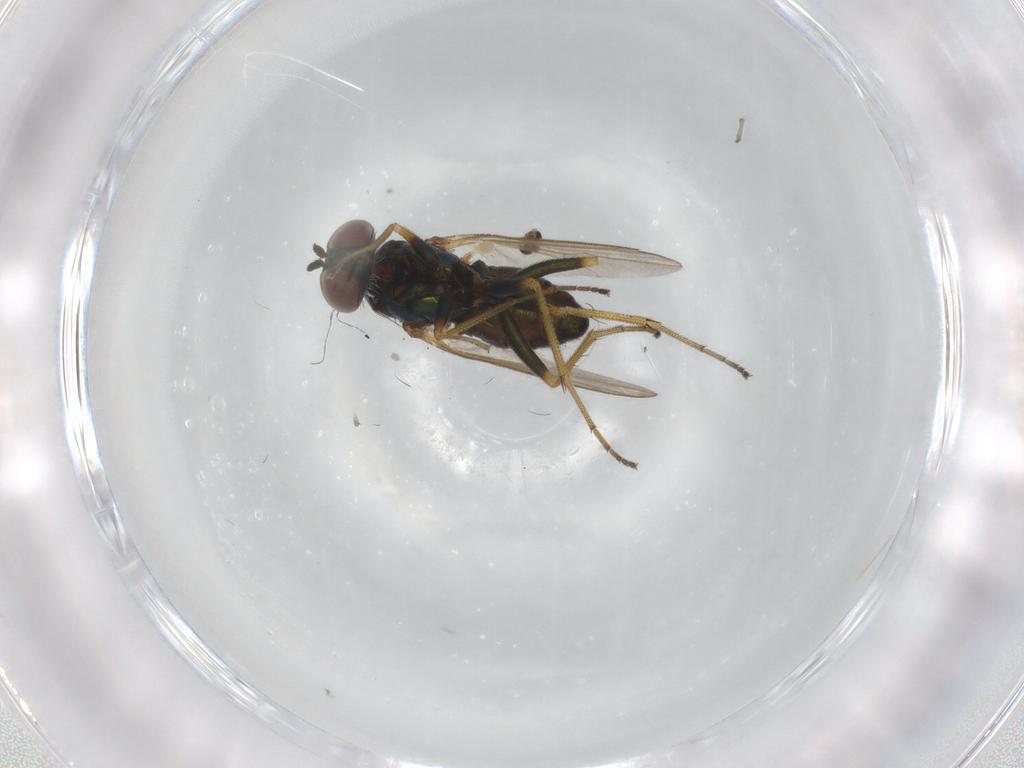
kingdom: Animalia
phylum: Arthropoda
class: Insecta
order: Diptera
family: Dolichopodidae
